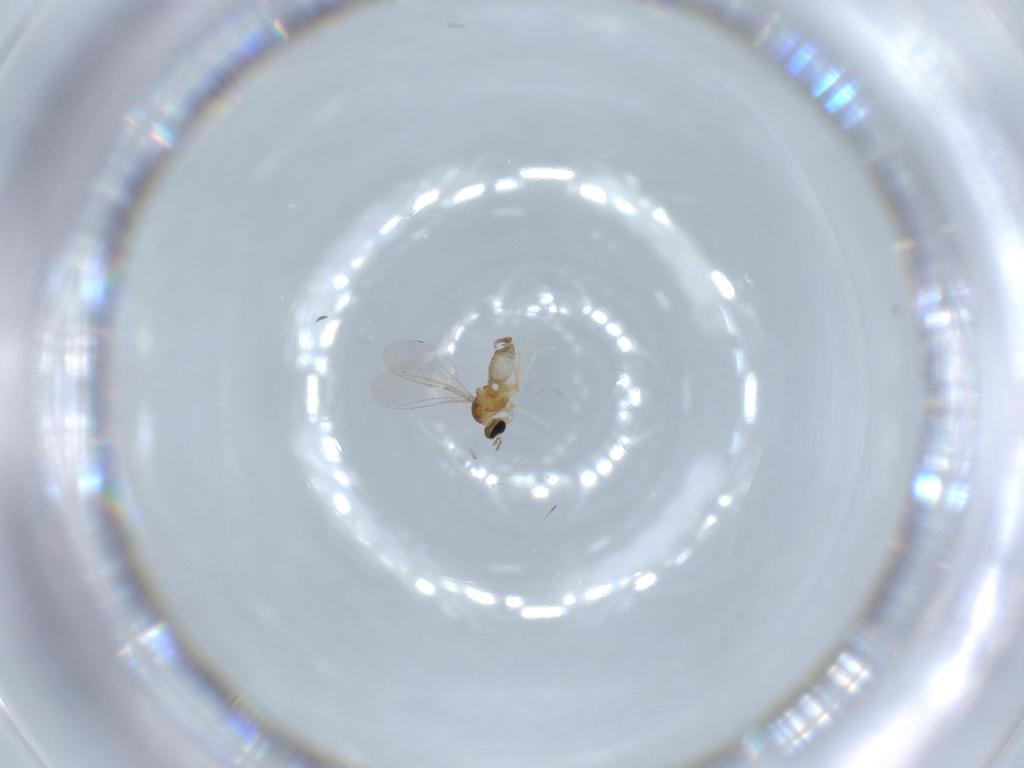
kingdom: Animalia
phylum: Arthropoda
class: Insecta
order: Diptera
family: Cecidomyiidae
